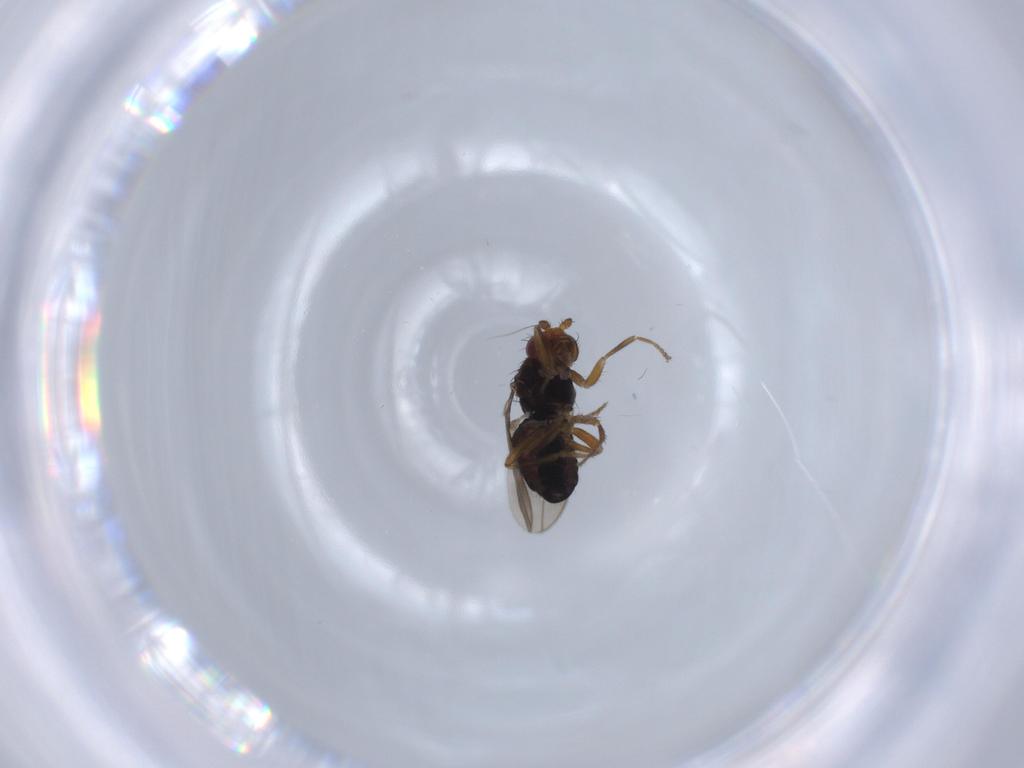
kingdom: Animalia
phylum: Arthropoda
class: Insecta
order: Diptera
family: Sphaeroceridae
